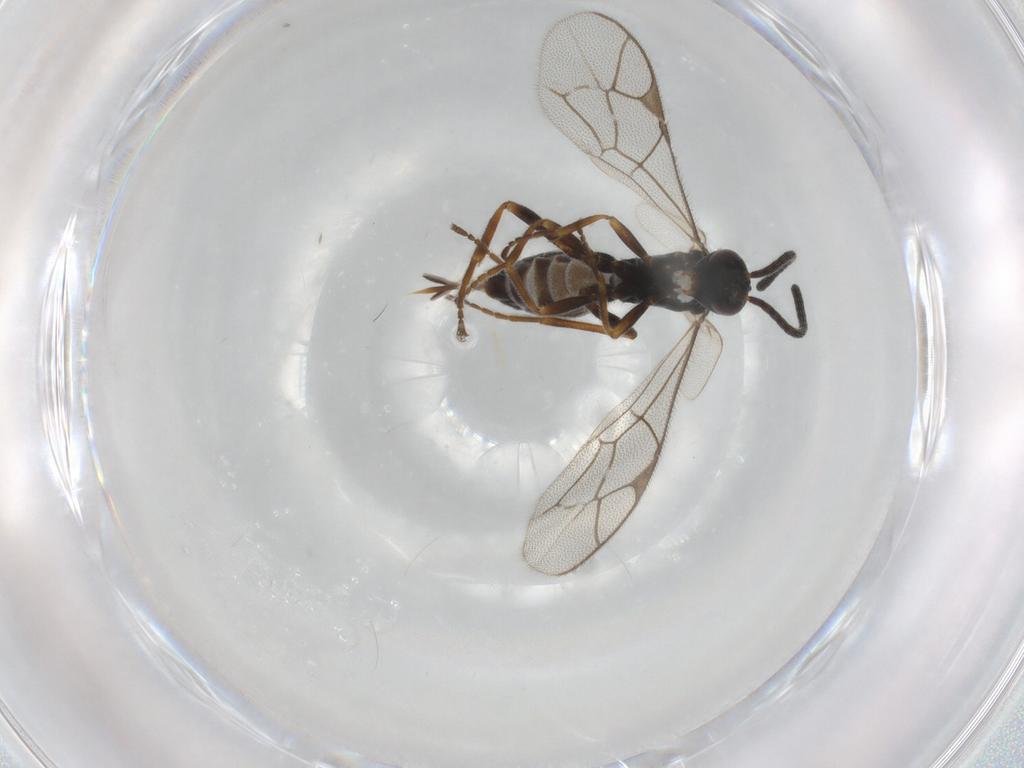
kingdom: Animalia
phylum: Arthropoda
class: Insecta
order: Hymenoptera
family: Ichneumonidae
